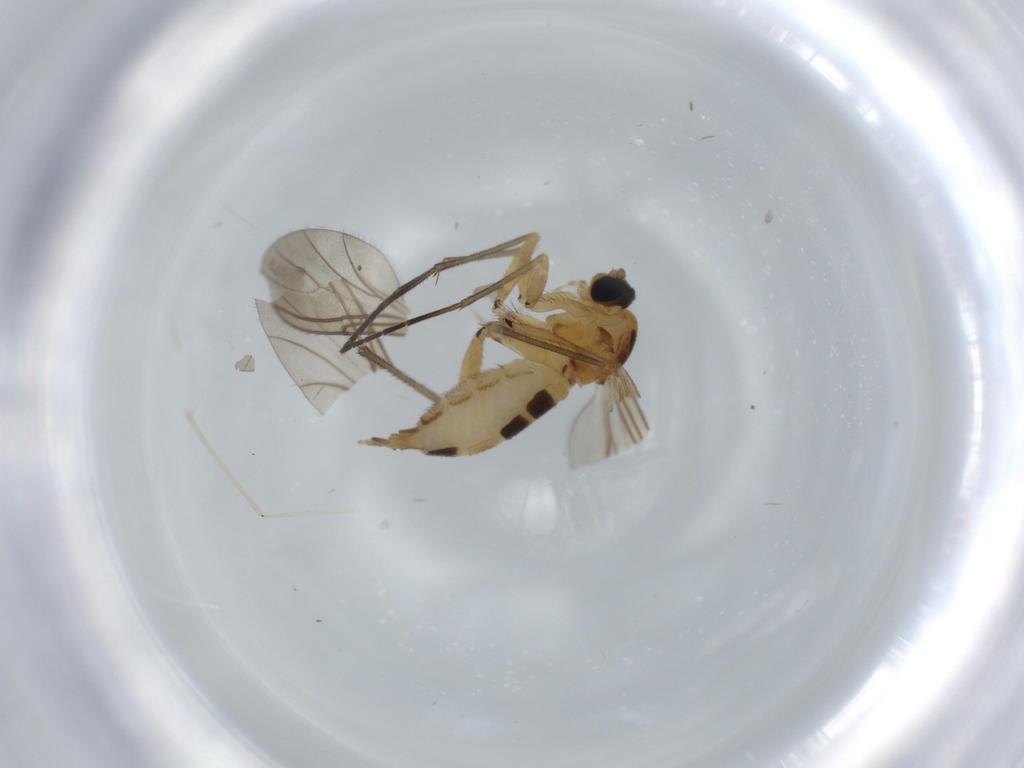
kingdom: Animalia
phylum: Arthropoda
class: Insecta
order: Diptera
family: Cecidomyiidae
